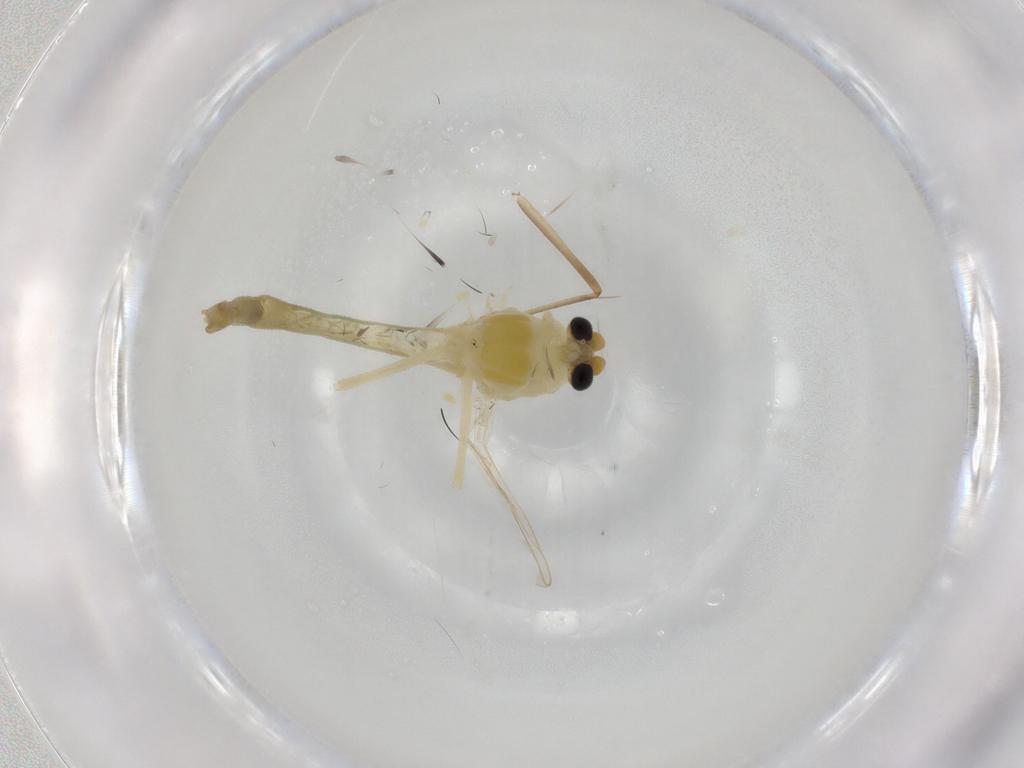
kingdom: Animalia
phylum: Arthropoda
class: Insecta
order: Diptera
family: Chironomidae
